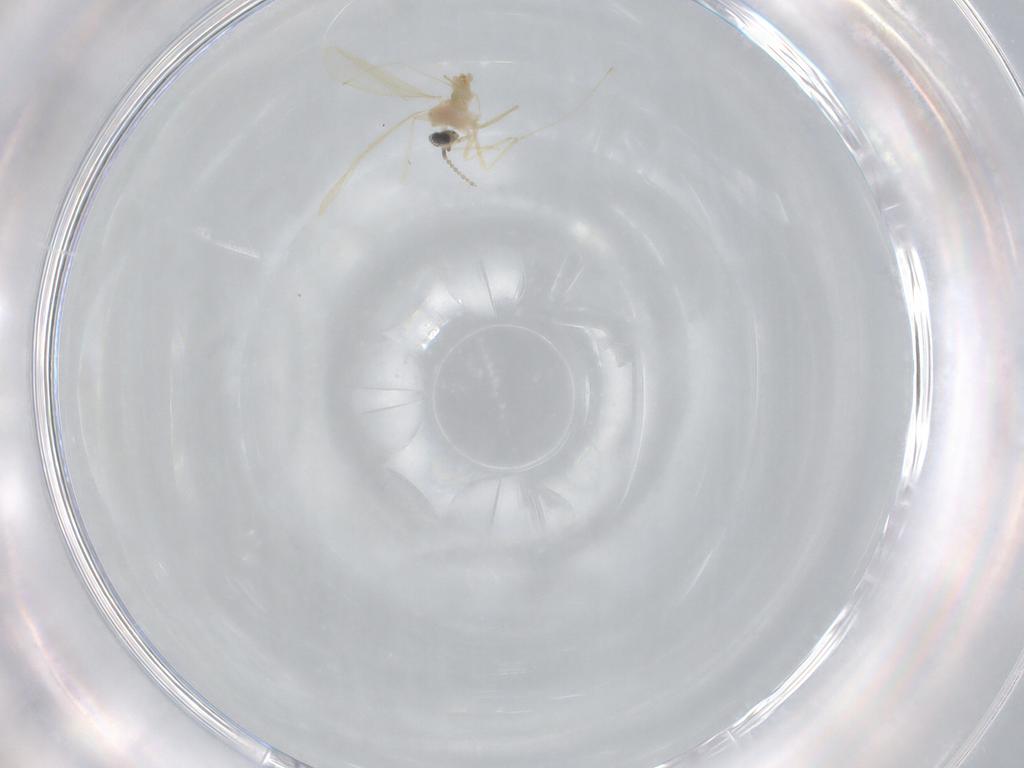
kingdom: Animalia
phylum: Arthropoda
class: Insecta
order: Diptera
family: Cecidomyiidae
